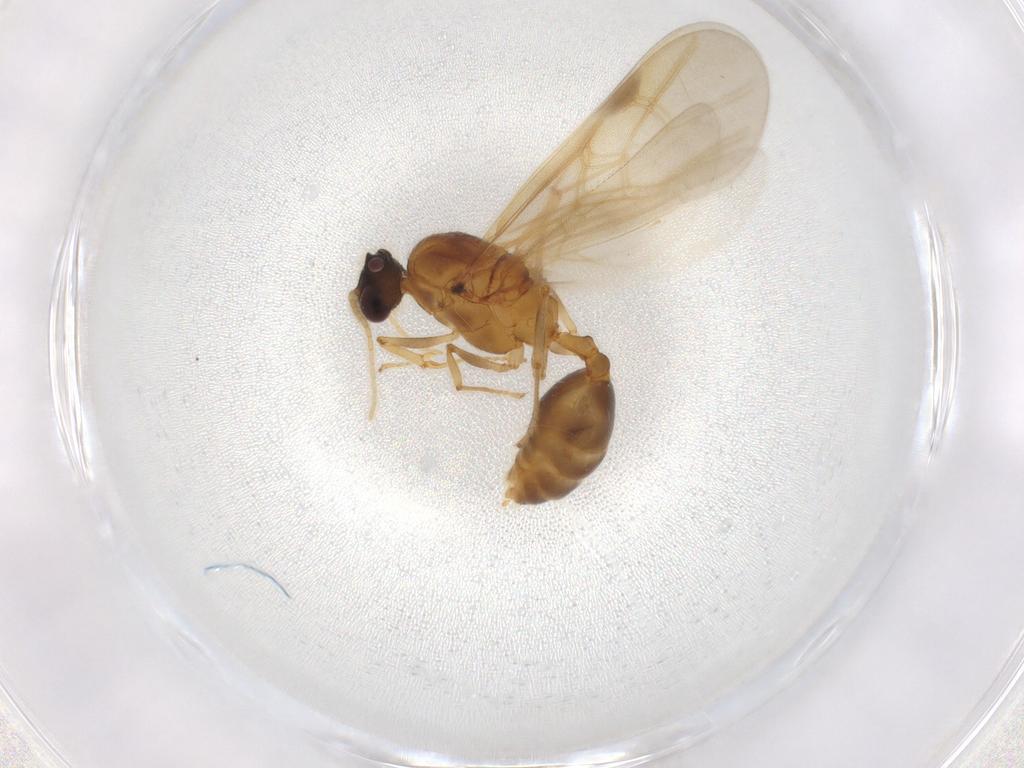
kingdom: Animalia
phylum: Arthropoda
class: Insecta
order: Hymenoptera
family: Formicidae
